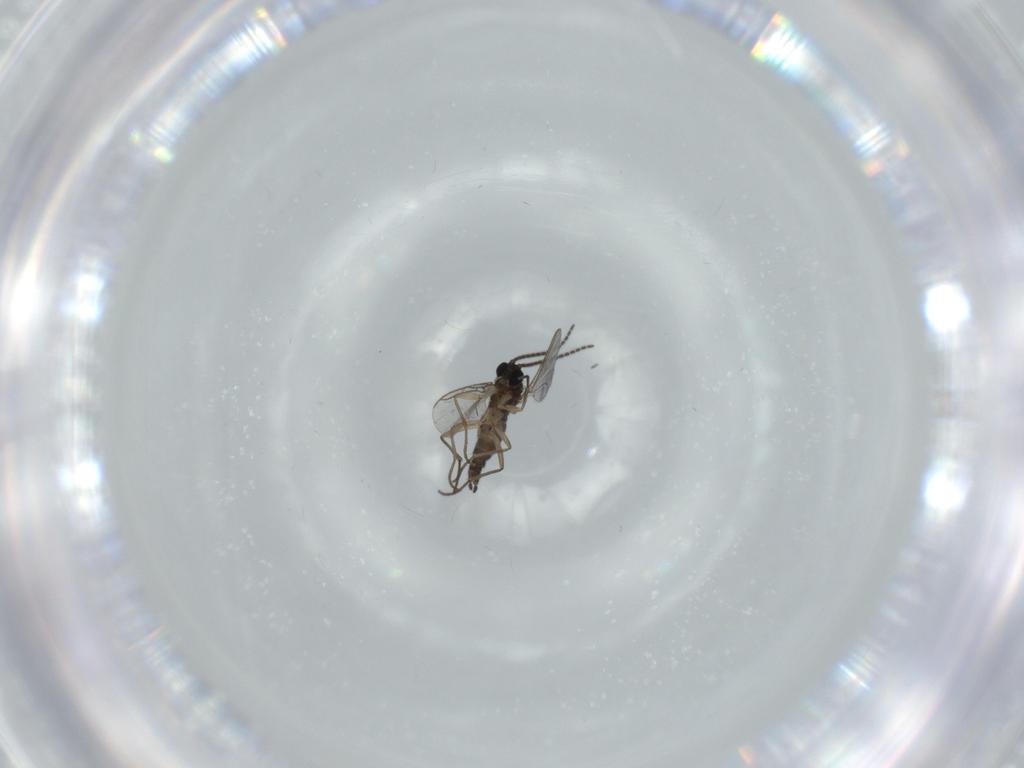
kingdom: Animalia
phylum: Arthropoda
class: Insecta
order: Diptera
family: Sciaridae
